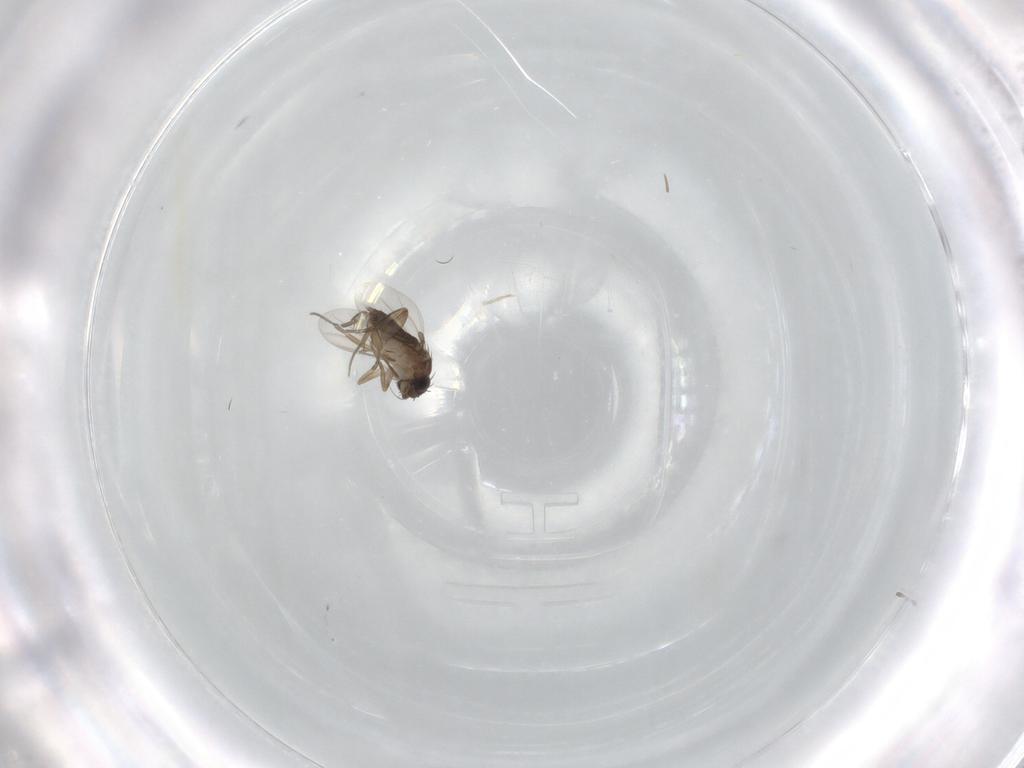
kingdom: Animalia
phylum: Arthropoda
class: Insecta
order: Diptera
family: Phoridae
